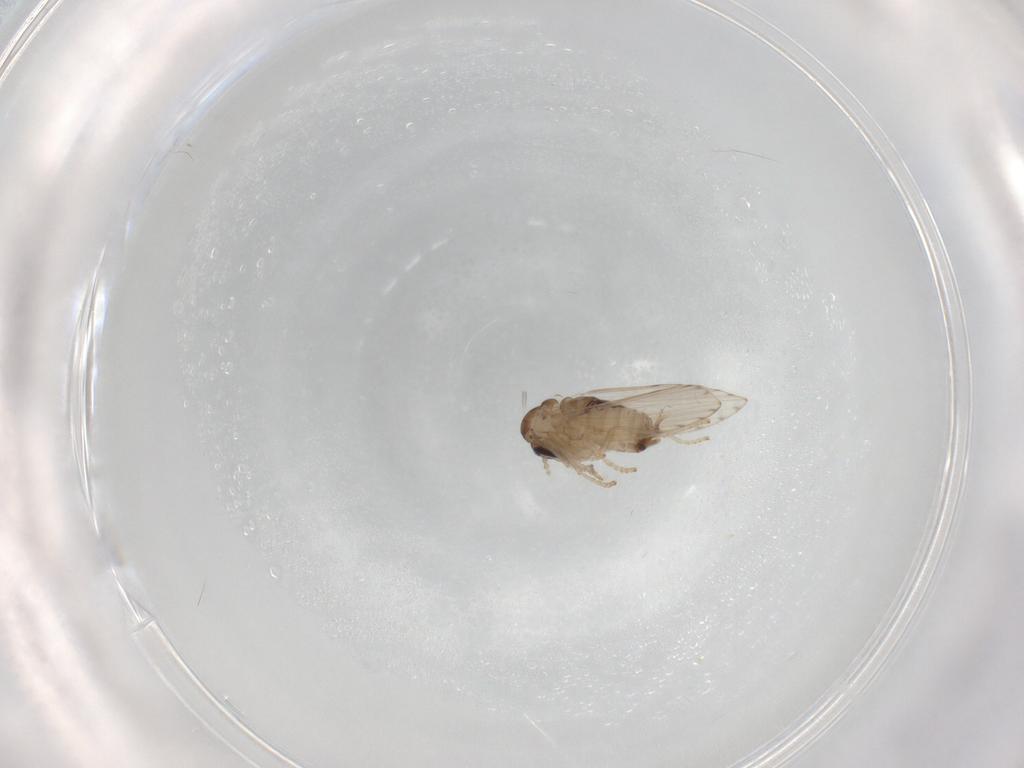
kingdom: Animalia
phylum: Arthropoda
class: Insecta
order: Diptera
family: Psychodidae
